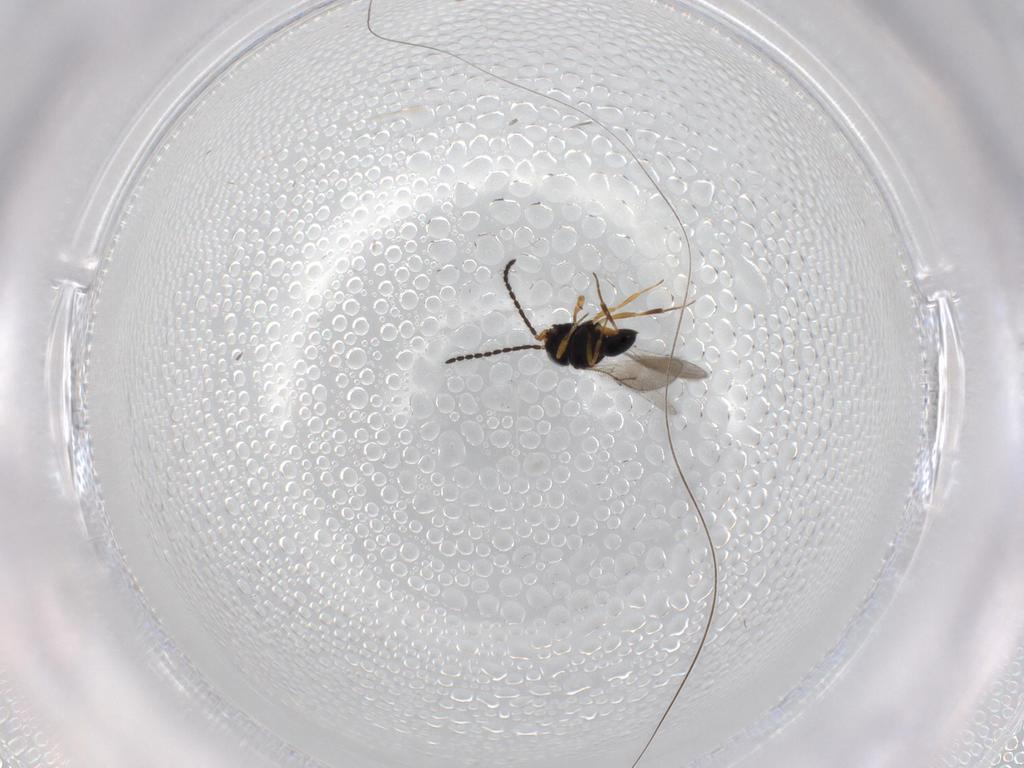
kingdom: Animalia
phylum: Arthropoda
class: Insecta
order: Hymenoptera
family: Scelionidae
